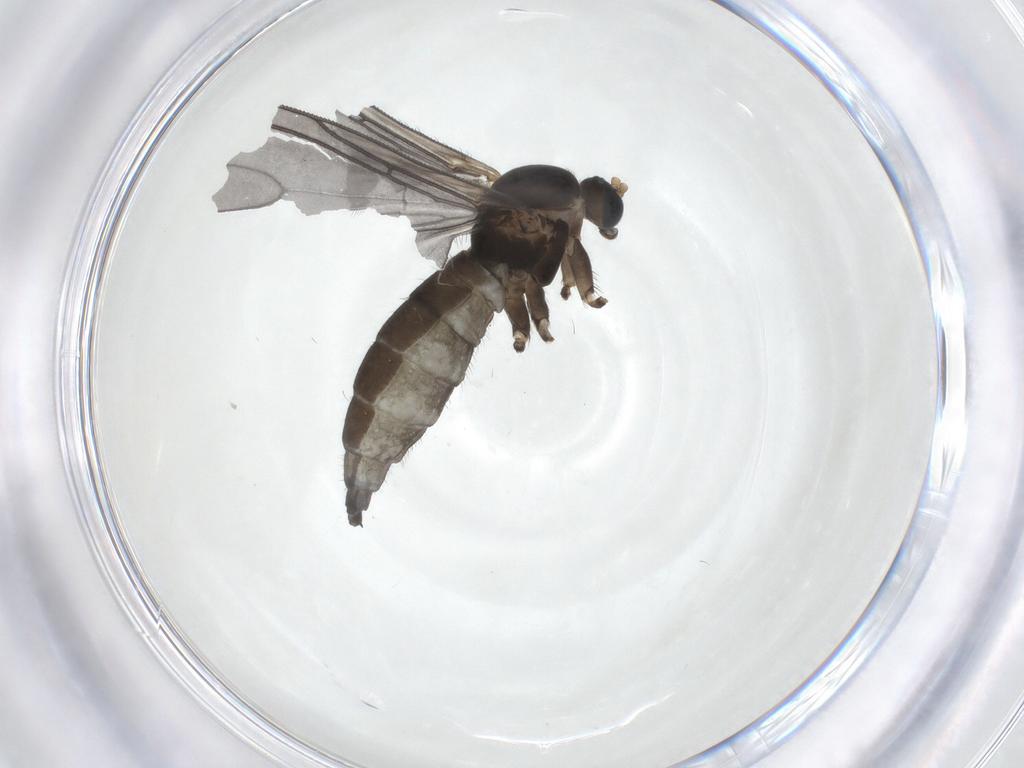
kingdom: Animalia
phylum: Arthropoda
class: Insecta
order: Diptera
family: Sciaridae
